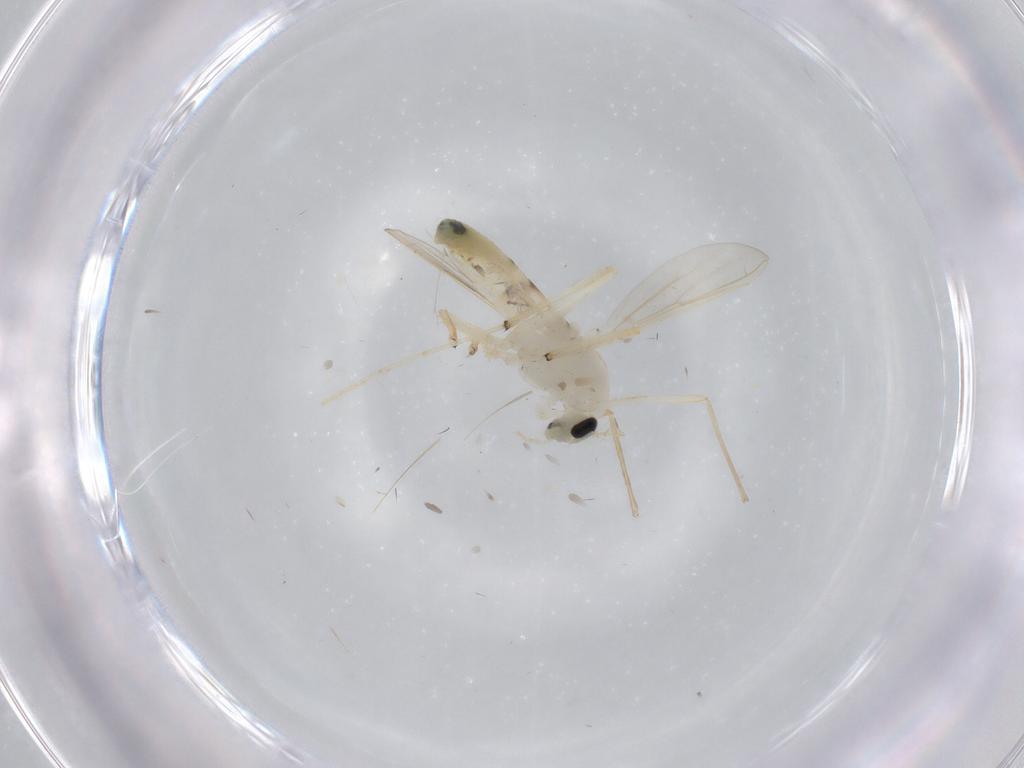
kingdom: Animalia
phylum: Arthropoda
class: Insecta
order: Diptera
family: Chironomidae
